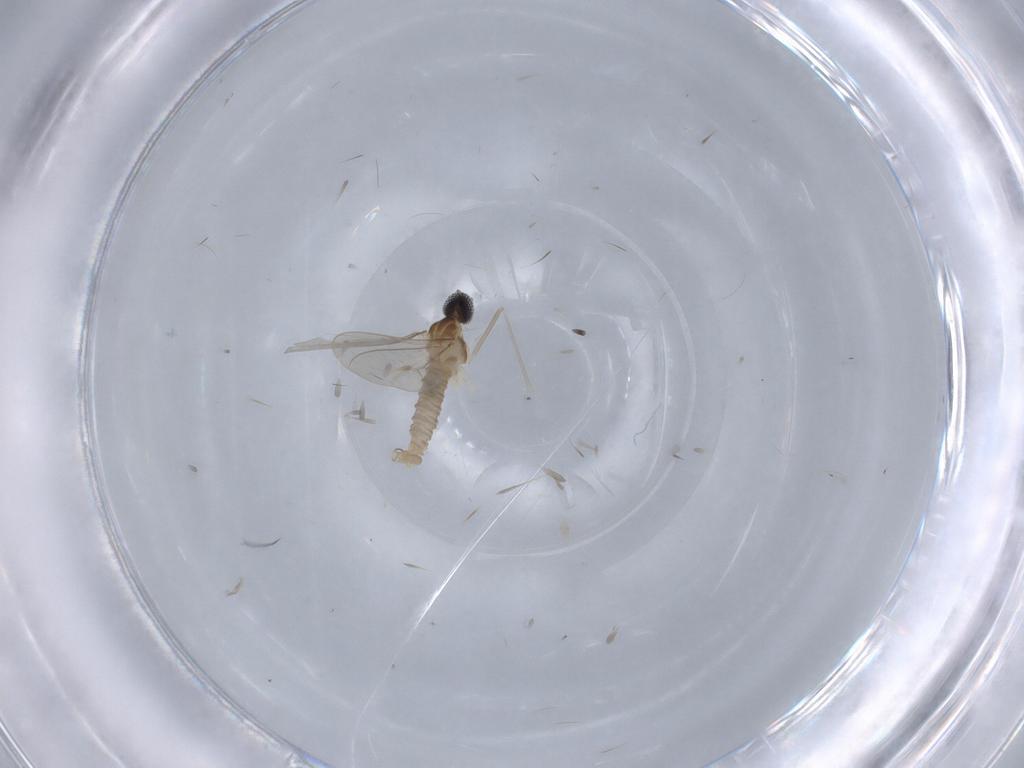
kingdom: Animalia
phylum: Arthropoda
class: Insecta
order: Diptera
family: Cecidomyiidae
